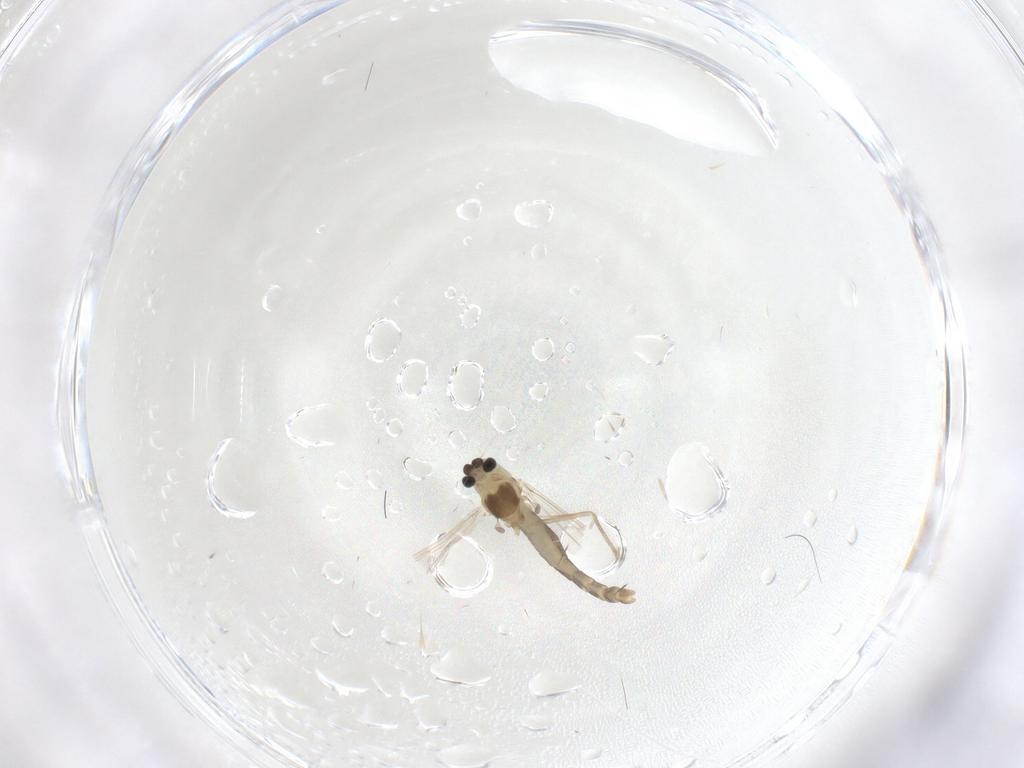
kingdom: Animalia
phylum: Arthropoda
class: Insecta
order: Diptera
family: Chironomidae
